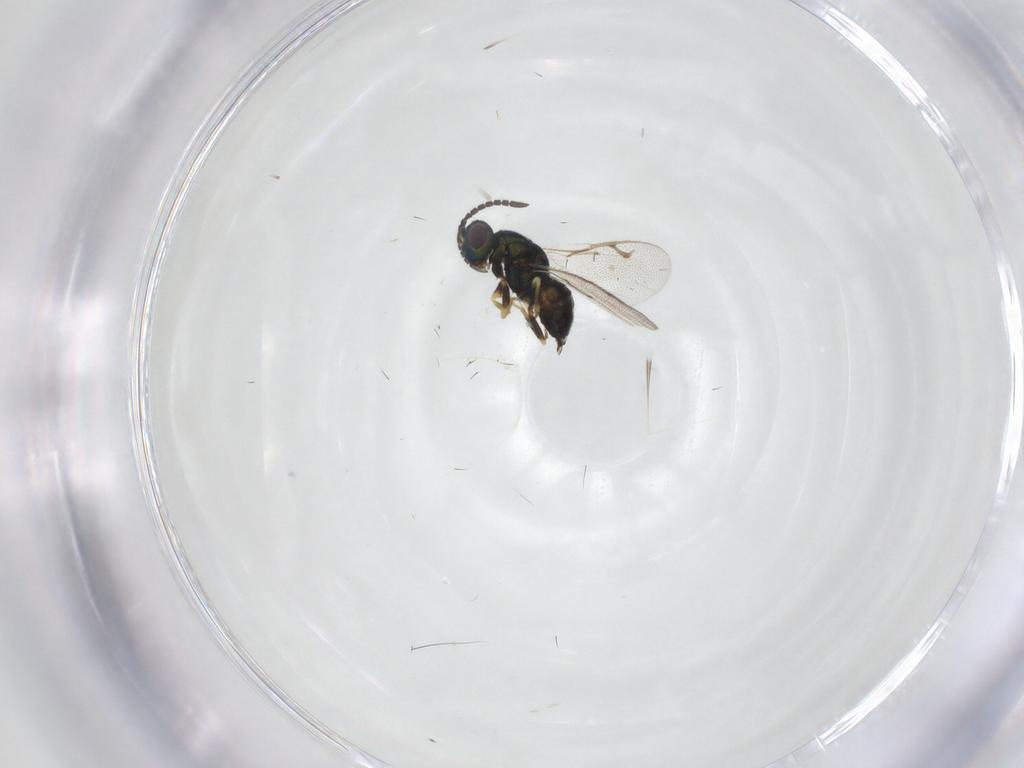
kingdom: Animalia
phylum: Arthropoda
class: Insecta
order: Hymenoptera
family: Pteromalidae
